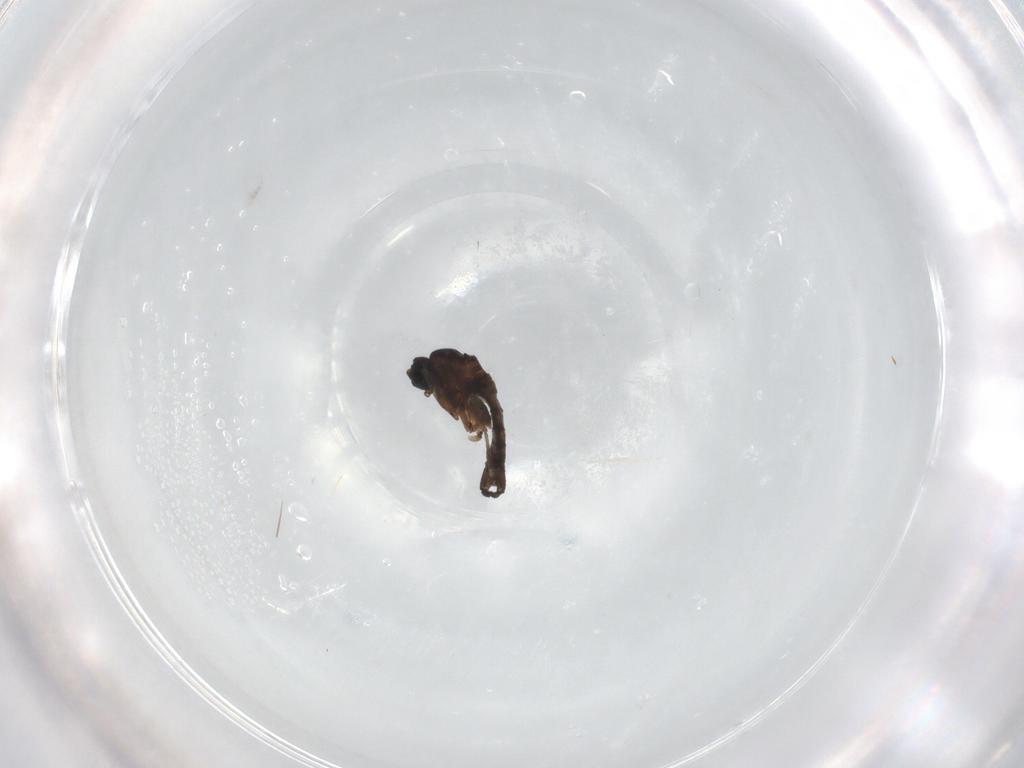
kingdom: Animalia
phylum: Arthropoda
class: Insecta
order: Diptera
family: Sciaridae
